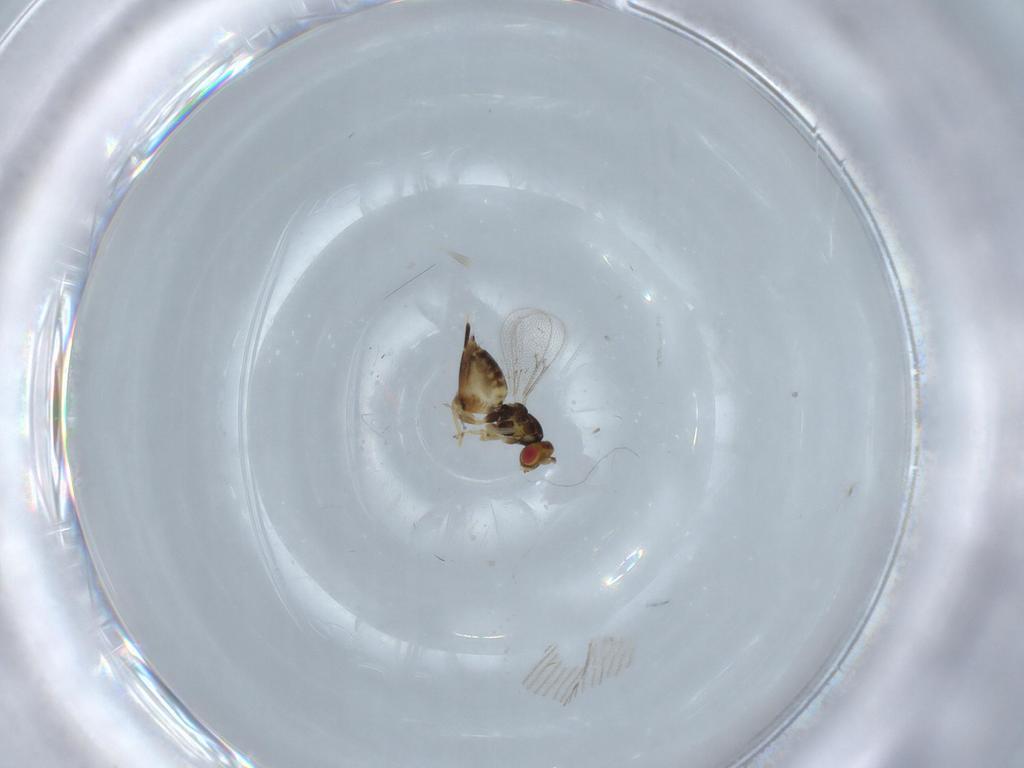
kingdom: Animalia
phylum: Arthropoda
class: Insecta
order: Hymenoptera
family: Eulophidae
